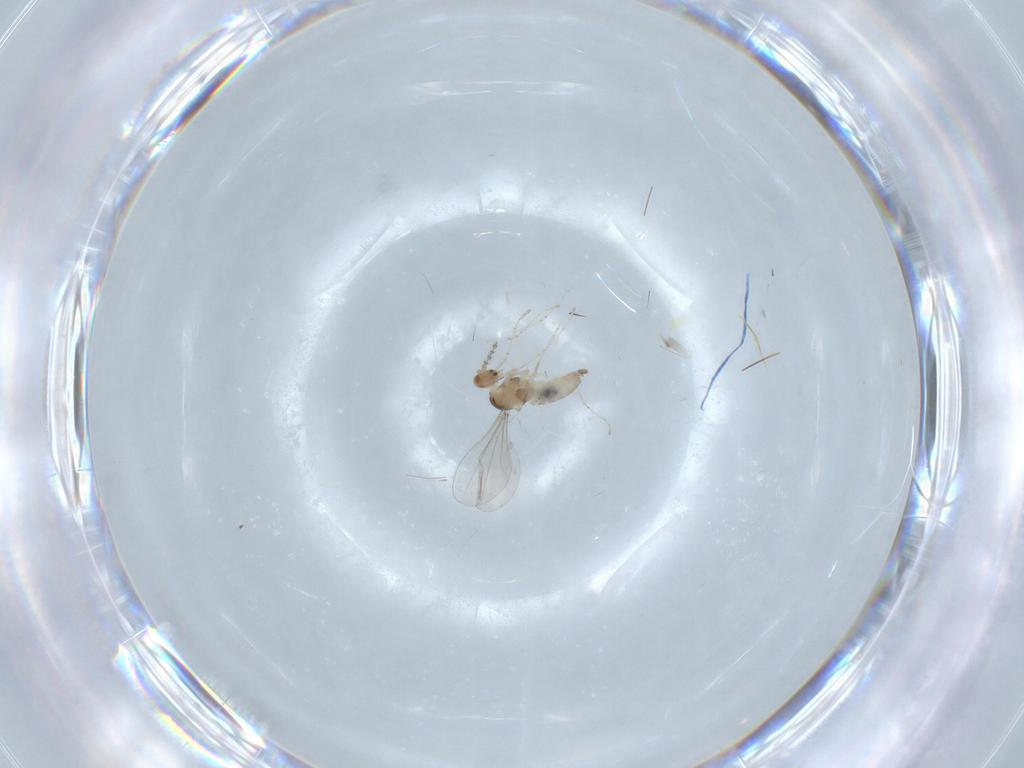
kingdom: Animalia
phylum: Arthropoda
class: Insecta
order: Diptera
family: Cecidomyiidae
